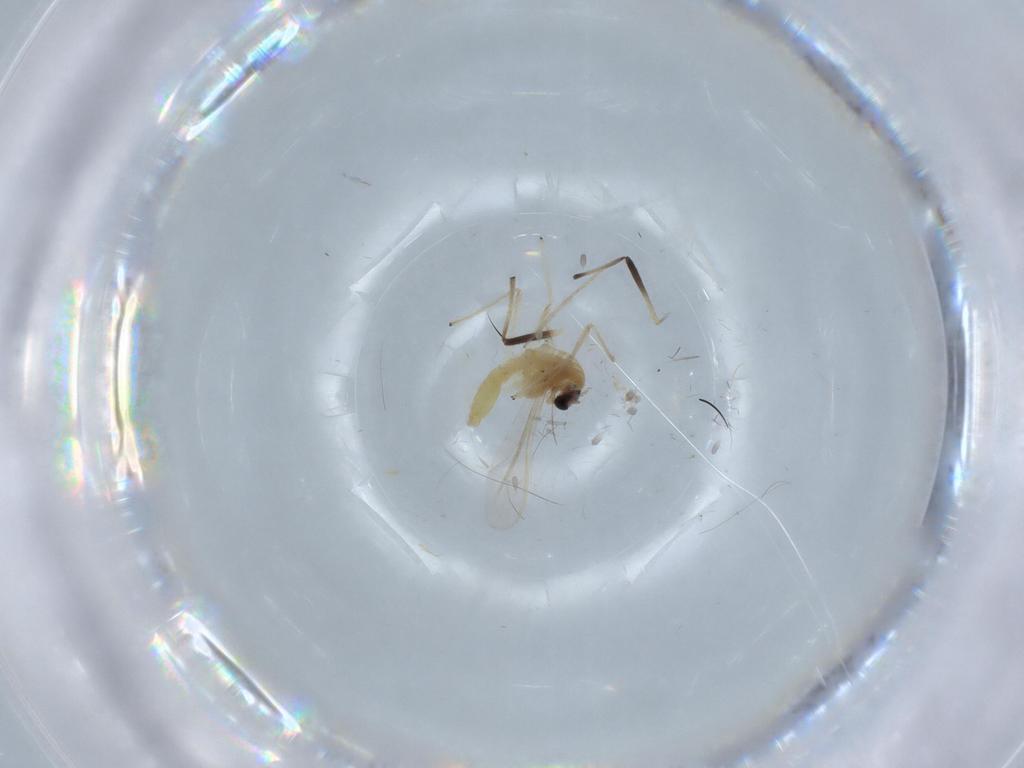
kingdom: Animalia
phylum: Arthropoda
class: Insecta
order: Diptera
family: Chironomidae
